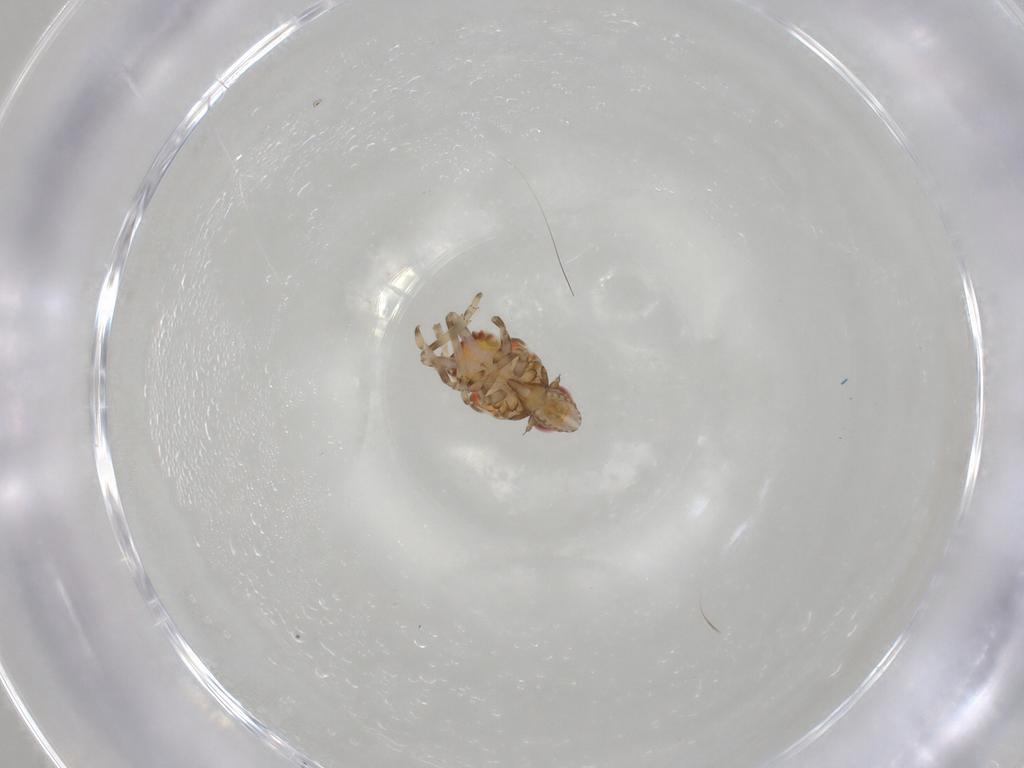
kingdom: Animalia
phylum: Arthropoda
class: Insecta
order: Hemiptera
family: Tropiduchidae
